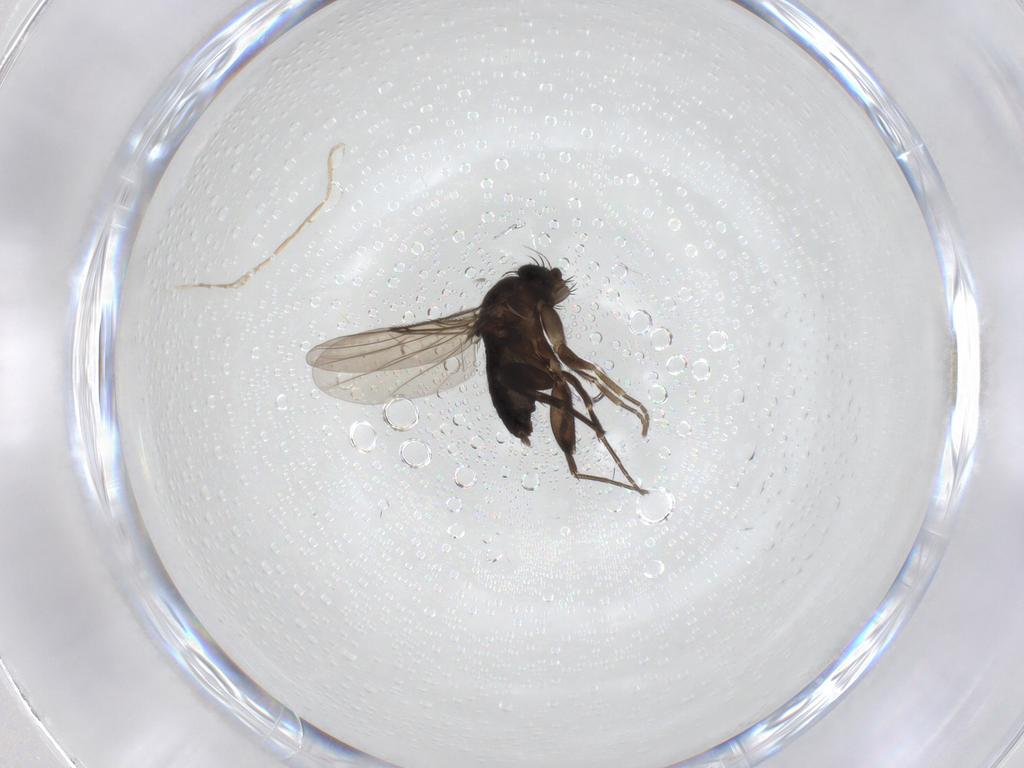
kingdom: Animalia
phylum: Arthropoda
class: Insecta
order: Diptera
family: Phoridae
